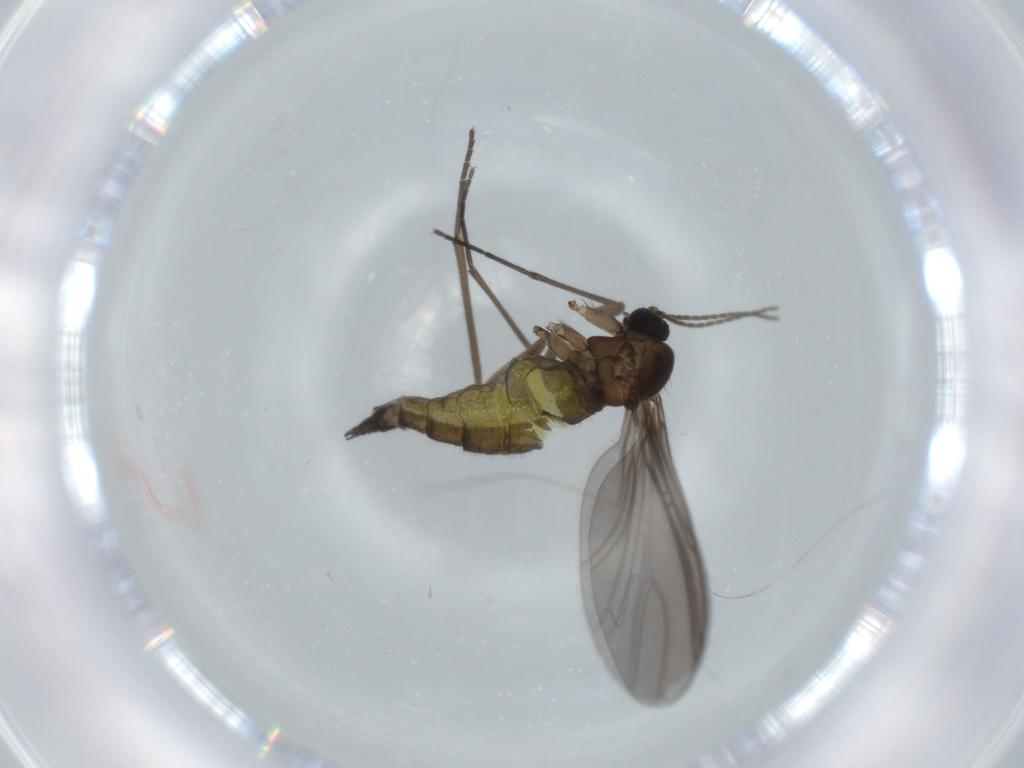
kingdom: Animalia
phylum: Arthropoda
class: Insecta
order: Diptera
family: Sciaridae
